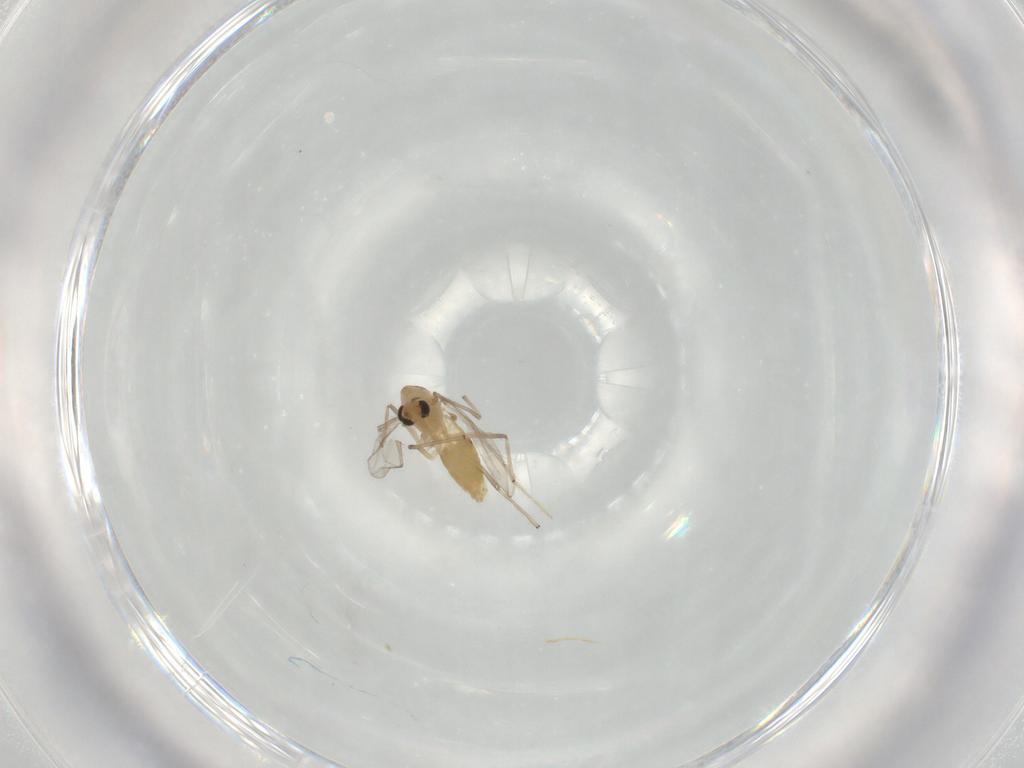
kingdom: Animalia
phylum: Arthropoda
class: Insecta
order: Diptera
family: Chironomidae
